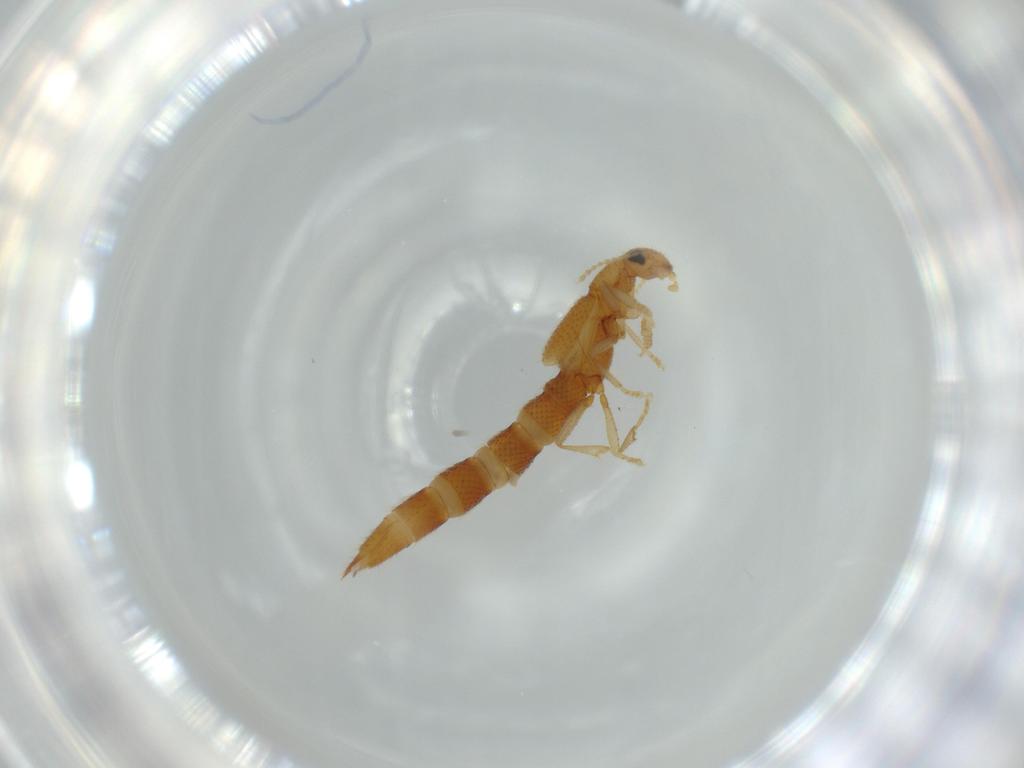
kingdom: Animalia
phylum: Arthropoda
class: Insecta
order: Coleoptera
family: Staphylinidae
